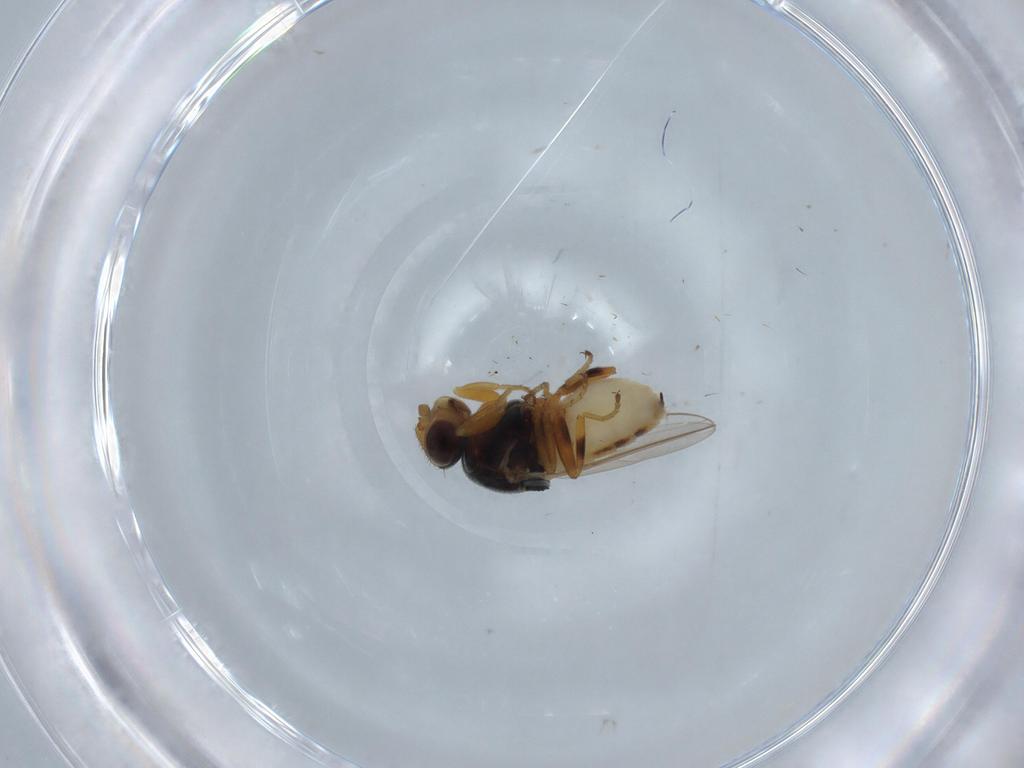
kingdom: Animalia
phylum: Arthropoda
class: Insecta
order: Diptera
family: Chloropidae
